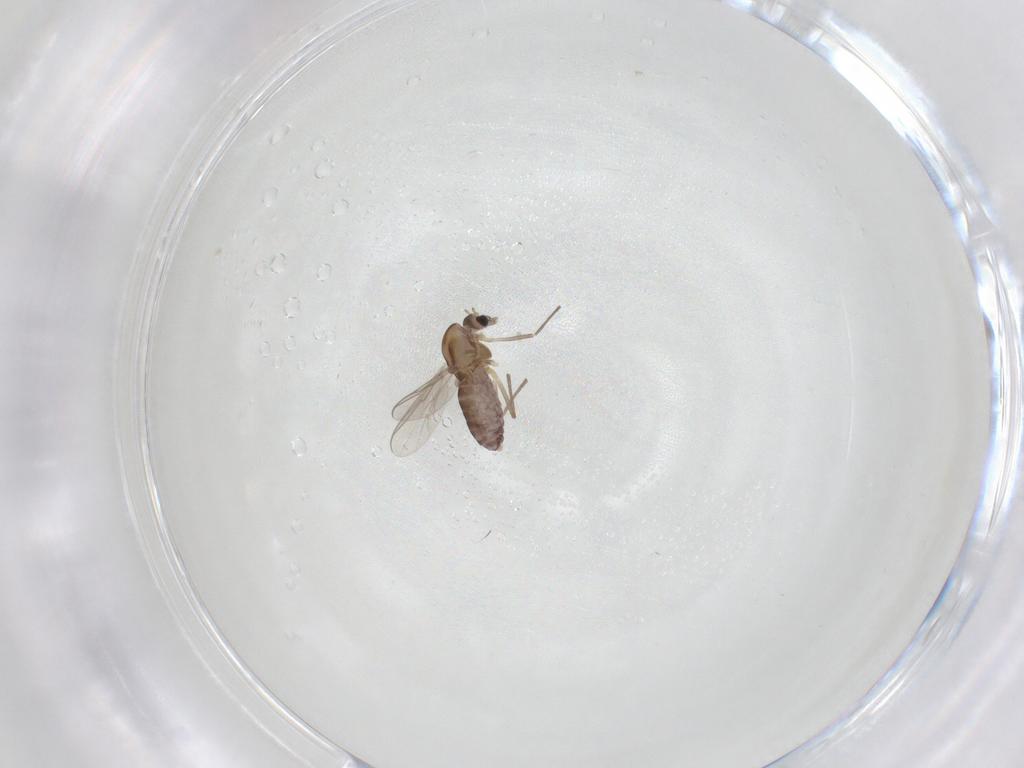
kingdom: Animalia
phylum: Arthropoda
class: Insecta
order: Diptera
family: Chironomidae
